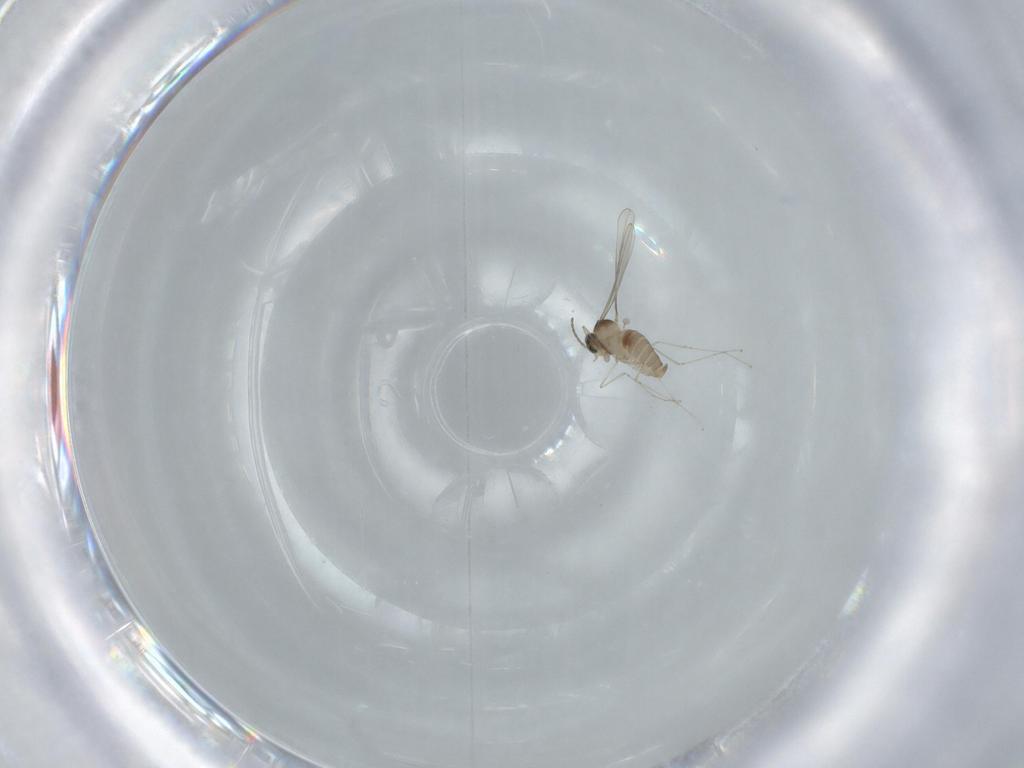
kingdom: Animalia
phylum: Arthropoda
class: Insecta
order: Diptera
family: Cecidomyiidae
